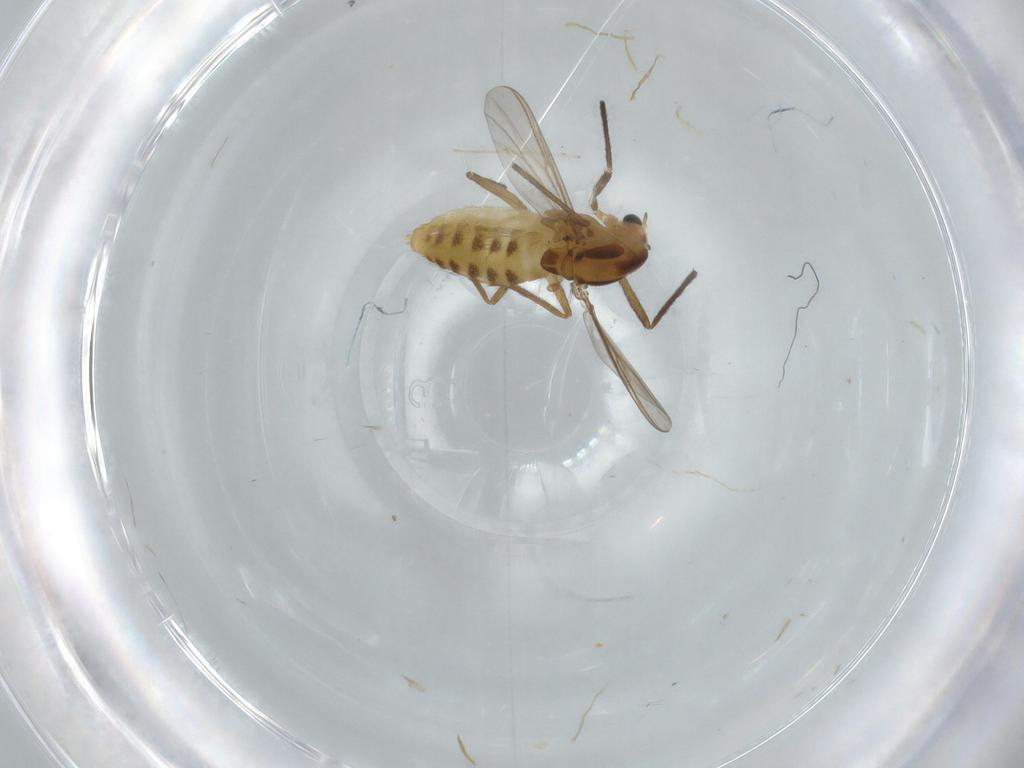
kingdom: Animalia
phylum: Arthropoda
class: Insecta
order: Diptera
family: Chironomidae
